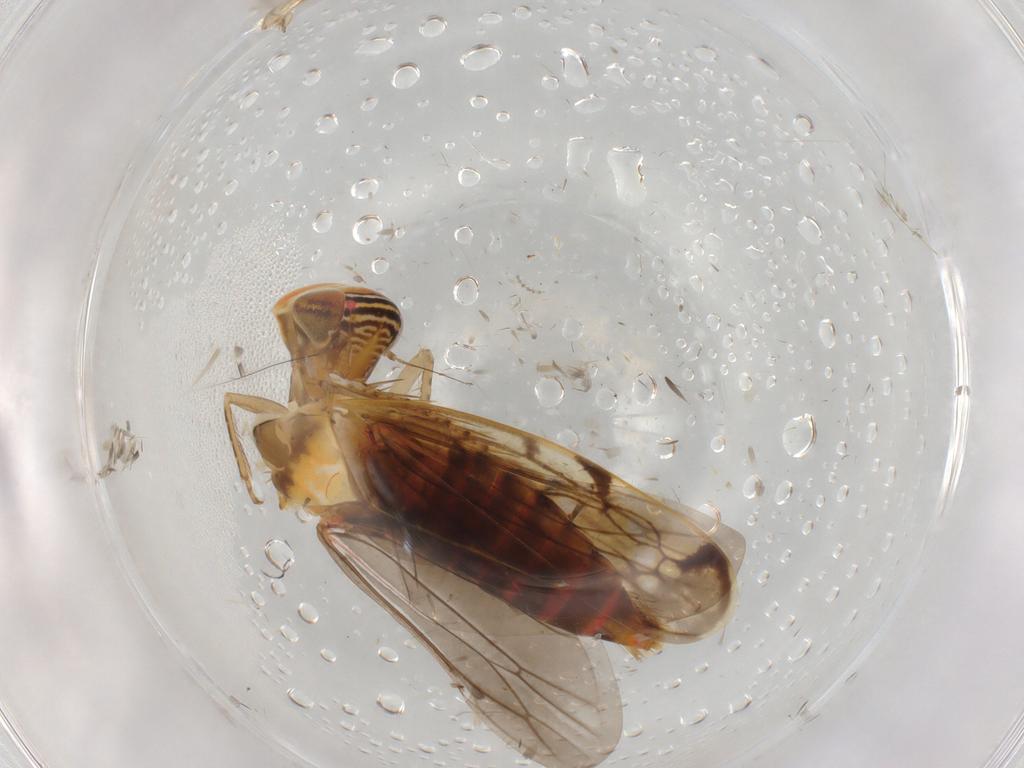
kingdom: Animalia
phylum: Arthropoda
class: Insecta
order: Hemiptera
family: Cicadellidae
